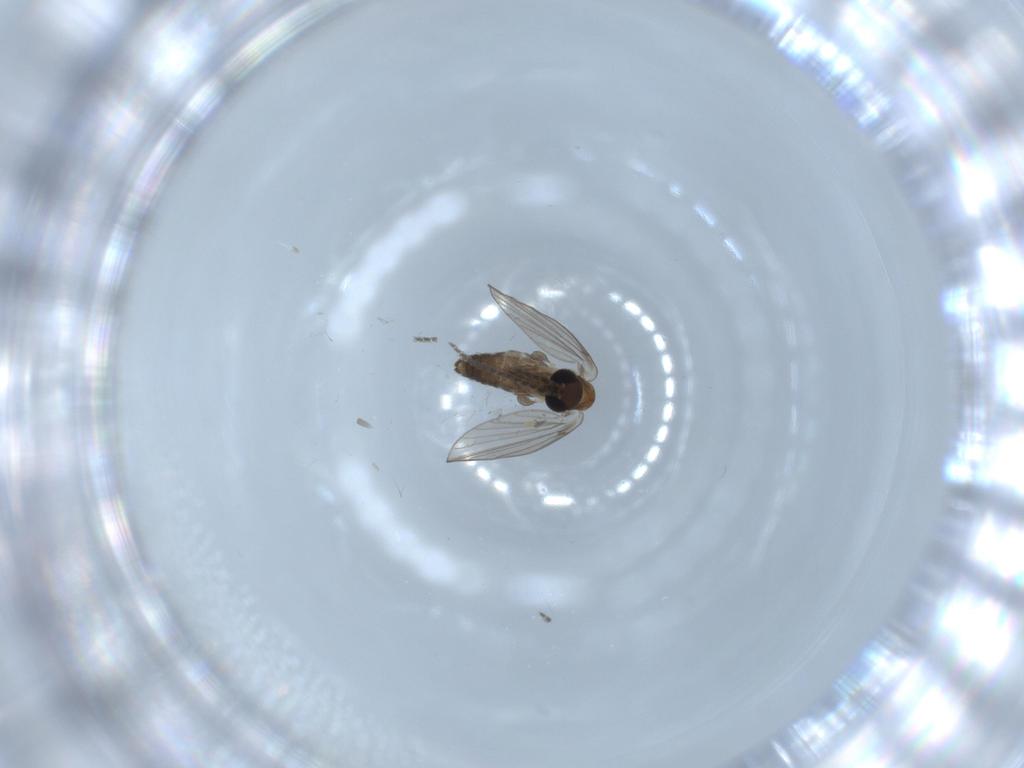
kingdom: Animalia
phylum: Arthropoda
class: Insecta
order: Diptera
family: Psychodidae
